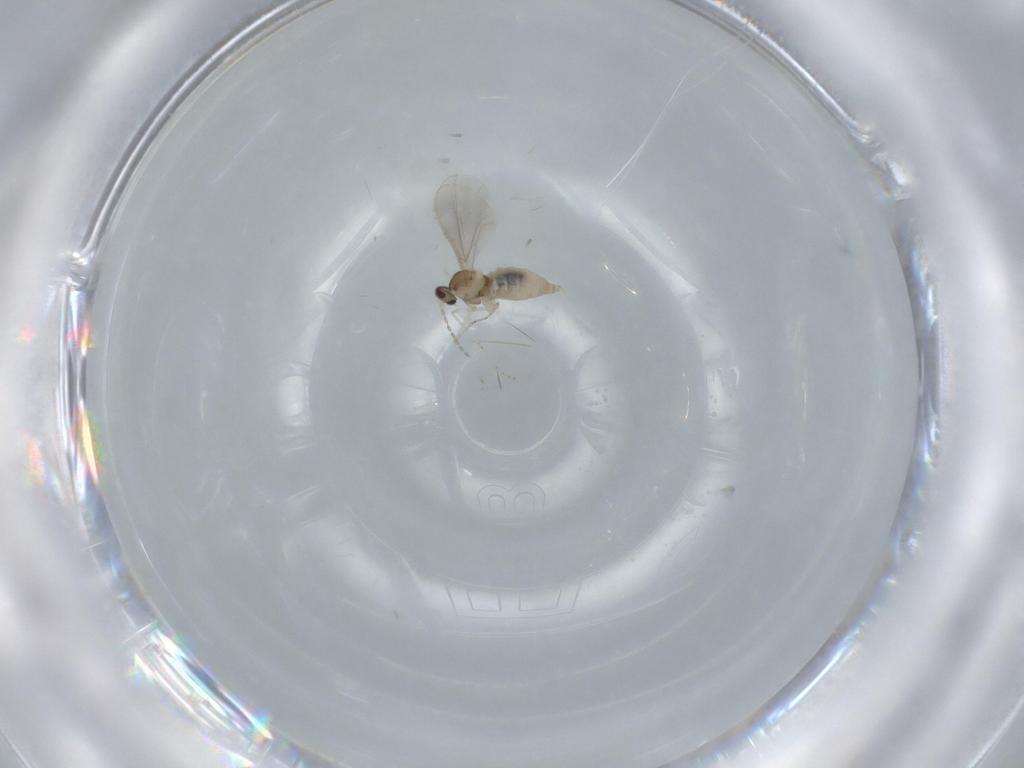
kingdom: Animalia
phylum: Arthropoda
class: Insecta
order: Diptera
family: Cecidomyiidae
